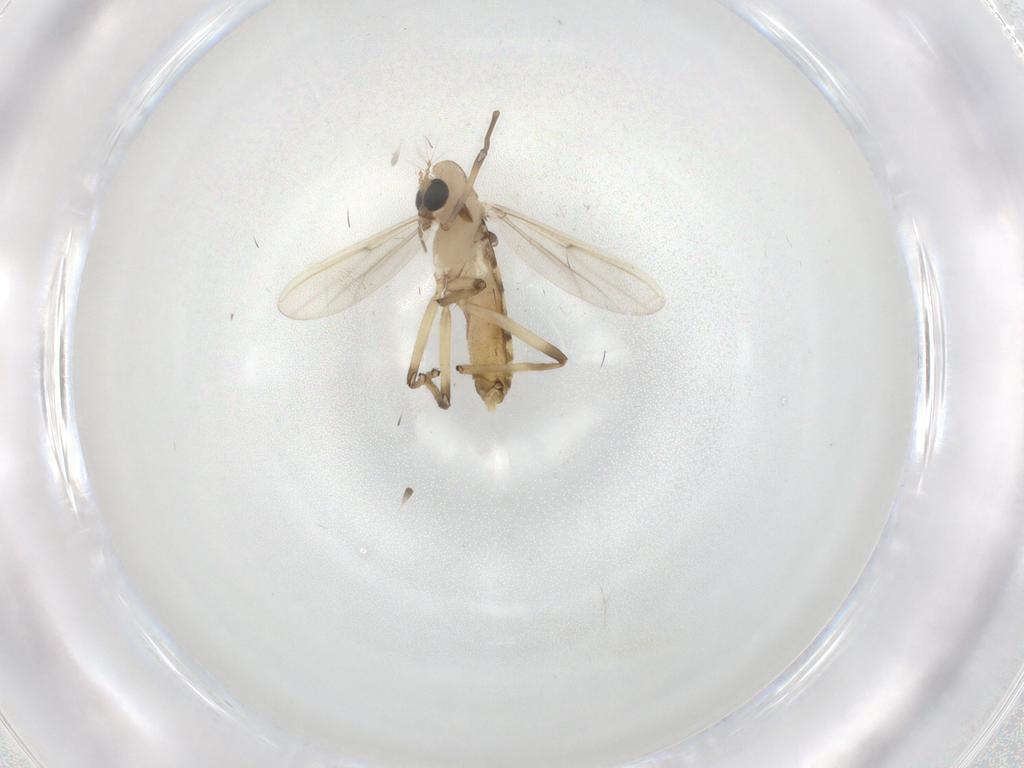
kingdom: Animalia
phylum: Arthropoda
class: Insecta
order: Diptera
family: Chironomidae
